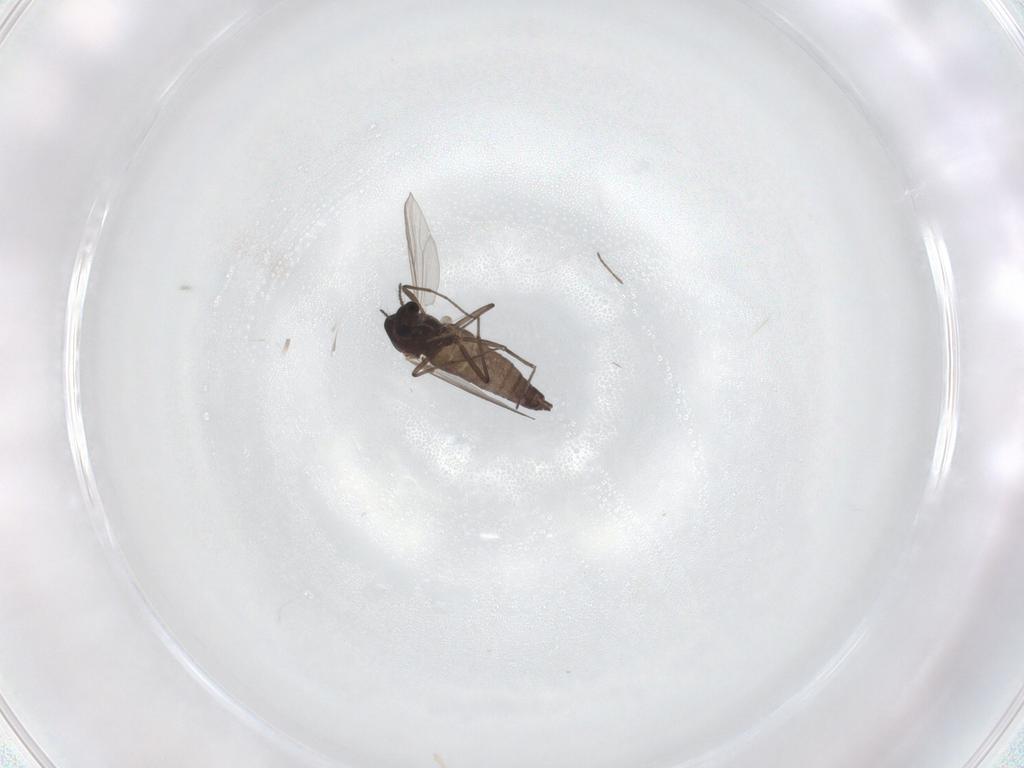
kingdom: Animalia
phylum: Arthropoda
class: Insecta
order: Diptera
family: Chironomidae
